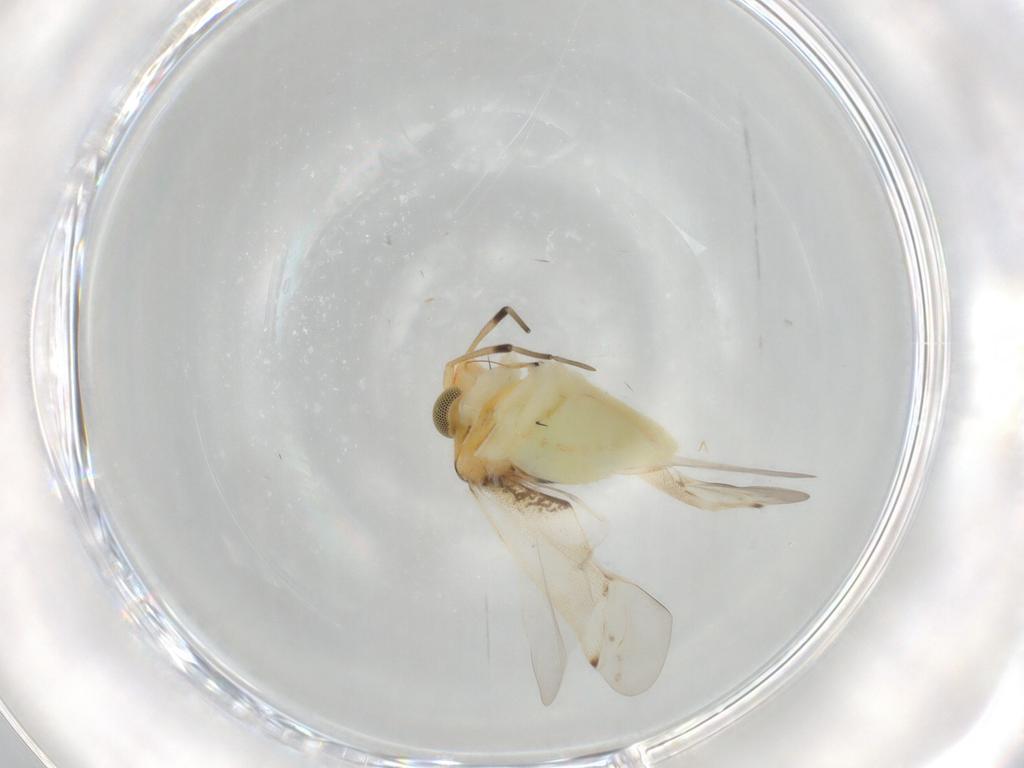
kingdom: Animalia
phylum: Arthropoda
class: Insecta
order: Hemiptera
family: Miridae
